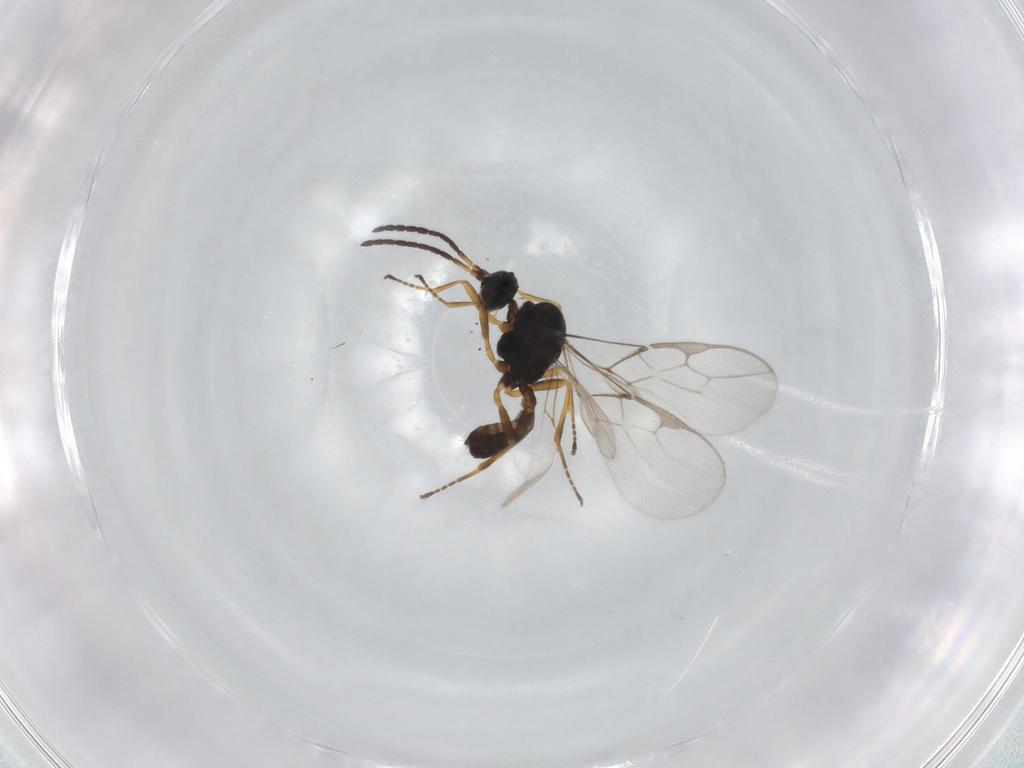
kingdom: Animalia
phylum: Arthropoda
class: Insecta
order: Hymenoptera
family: Braconidae
